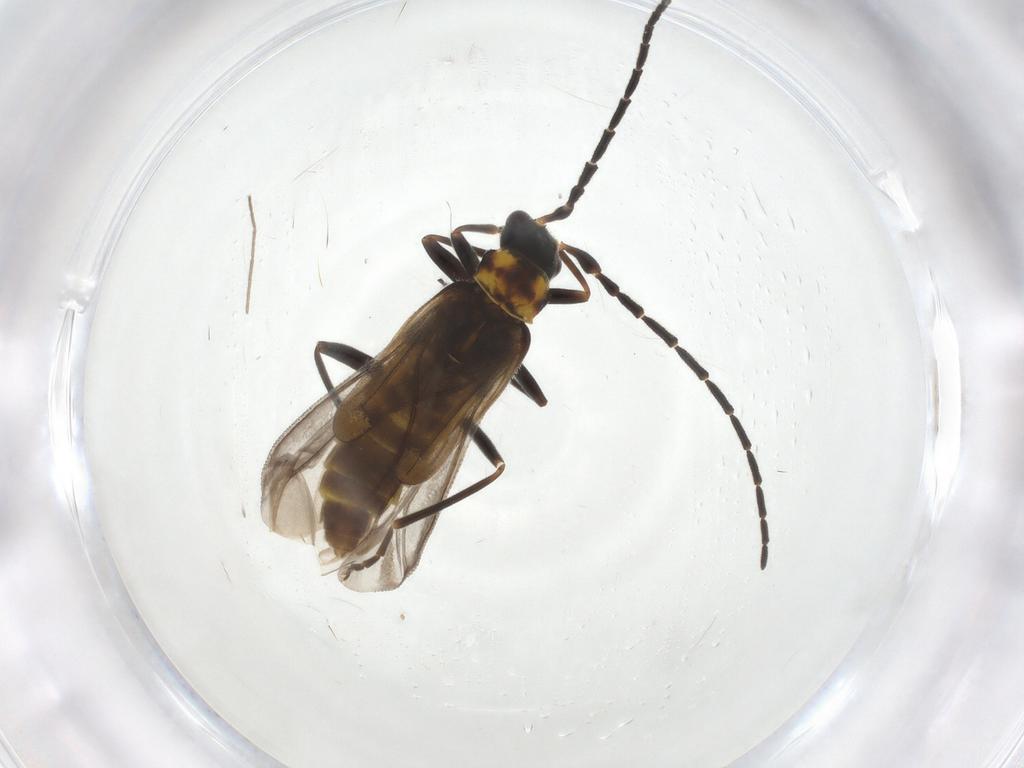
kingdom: Animalia
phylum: Arthropoda
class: Insecta
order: Coleoptera
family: Cantharidae
